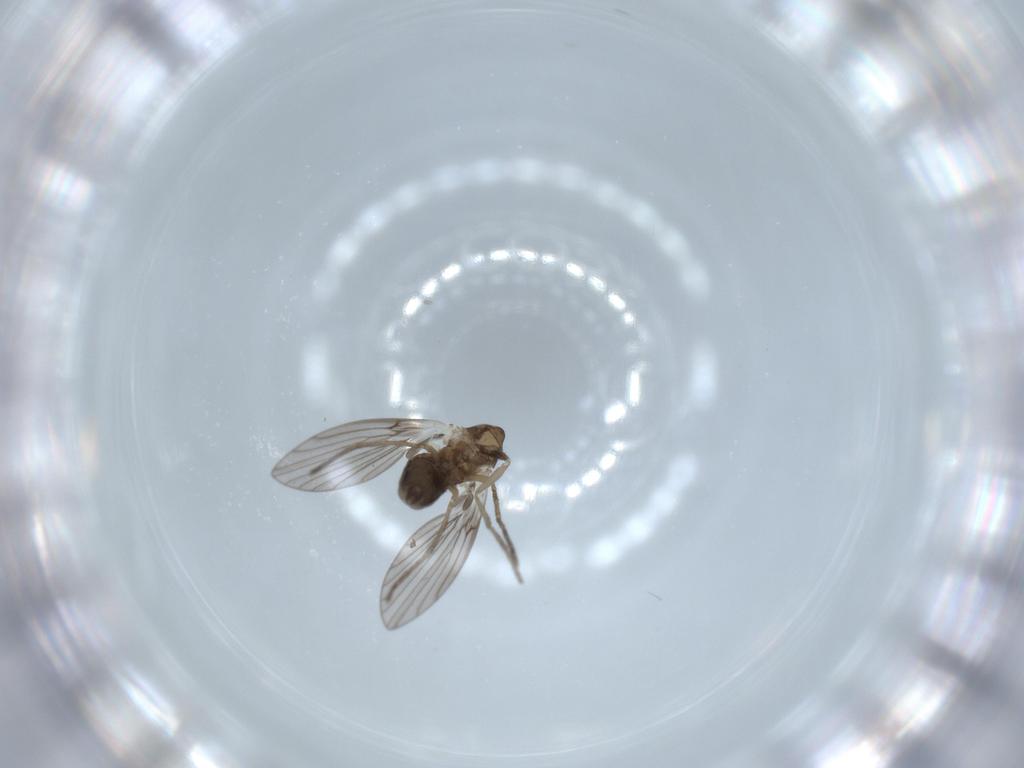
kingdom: Animalia
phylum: Arthropoda
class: Insecta
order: Diptera
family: Psychodidae
